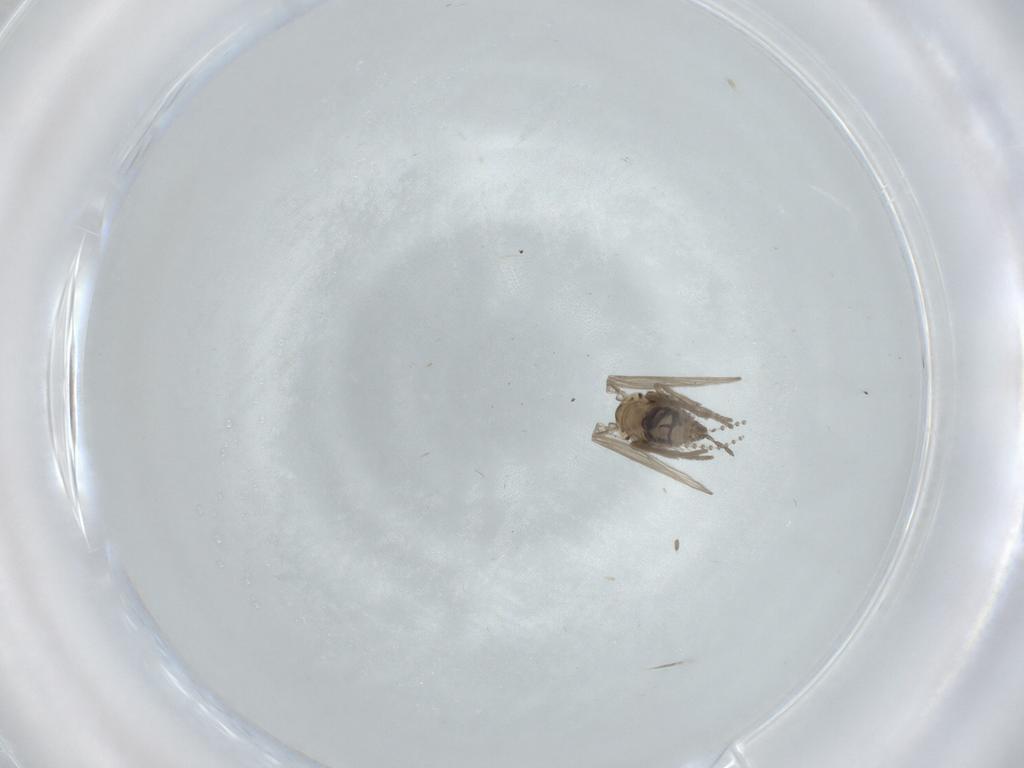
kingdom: Animalia
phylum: Arthropoda
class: Insecta
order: Diptera
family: Psychodidae
